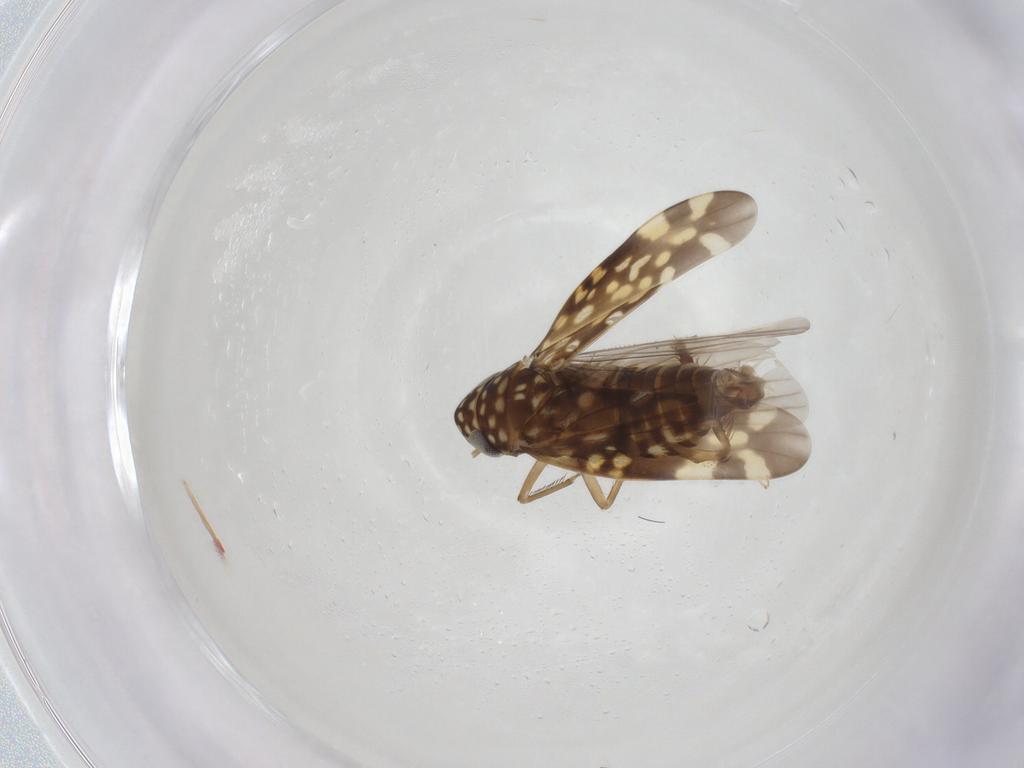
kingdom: Animalia
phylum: Arthropoda
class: Insecta
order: Hemiptera
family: Cicadellidae
